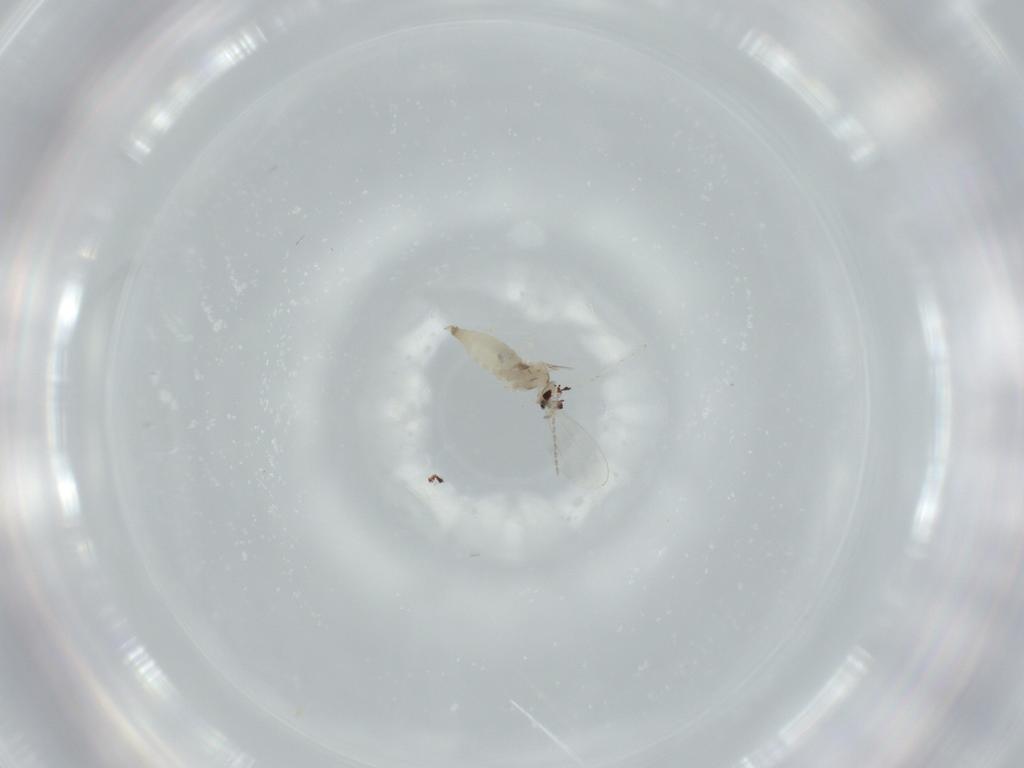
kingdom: Animalia
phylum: Arthropoda
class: Insecta
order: Diptera
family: Cecidomyiidae
